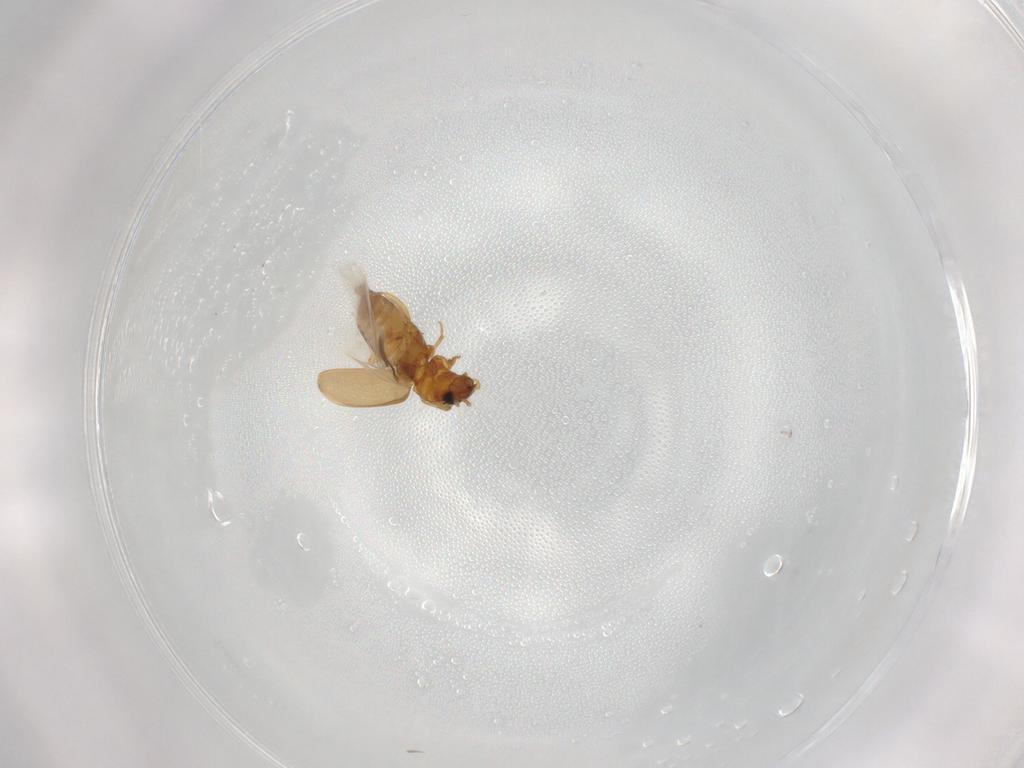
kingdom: Animalia
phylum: Arthropoda
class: Insecta
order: Coleoptera
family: Carabidae
